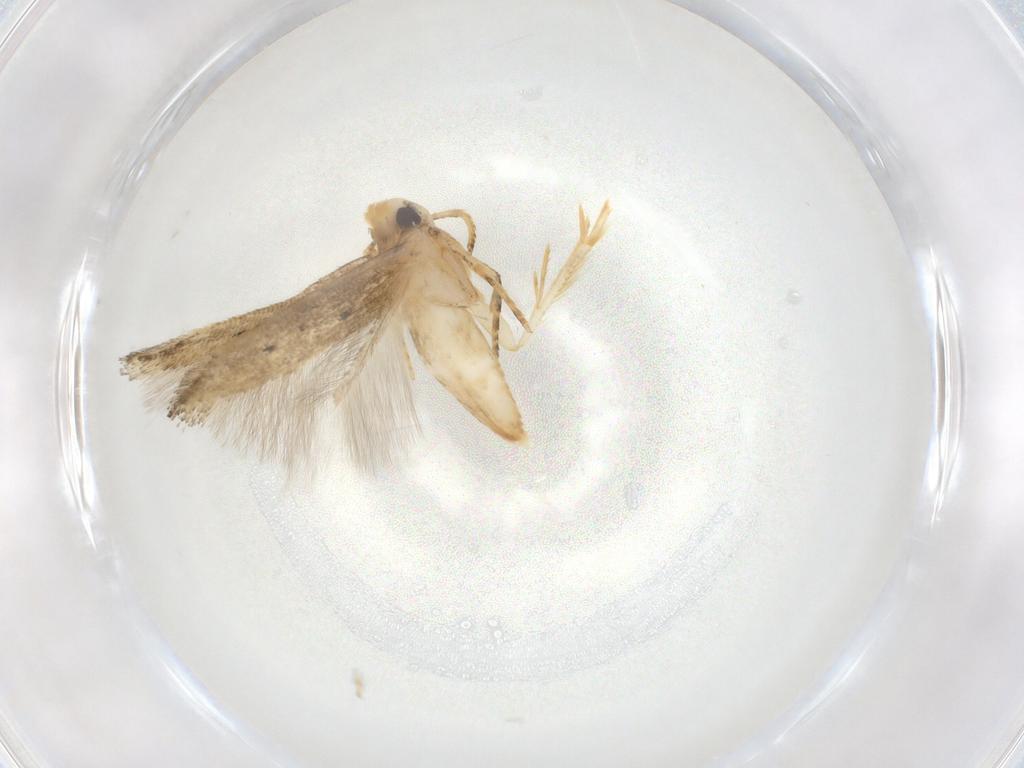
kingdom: Animalia
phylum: Arthropoda
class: Insecta
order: Lepidoptera
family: Cosmopterigidae
